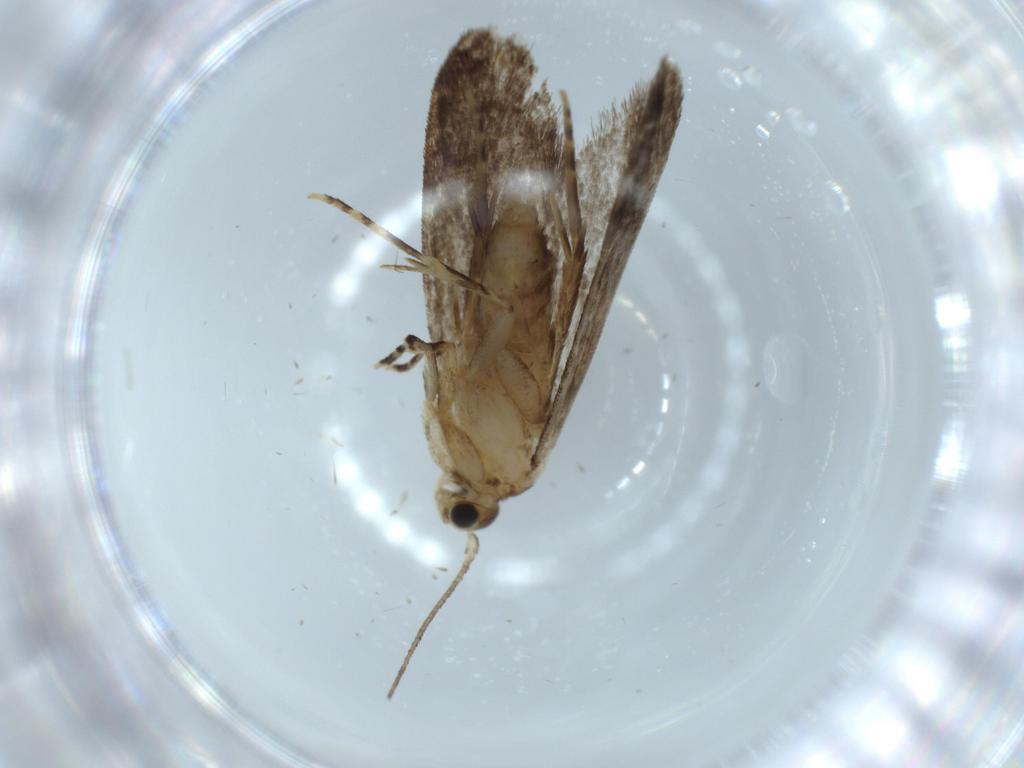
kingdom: Animalia
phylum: Arthropoda
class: Insecta
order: Lepidoptera
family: Tineidae
